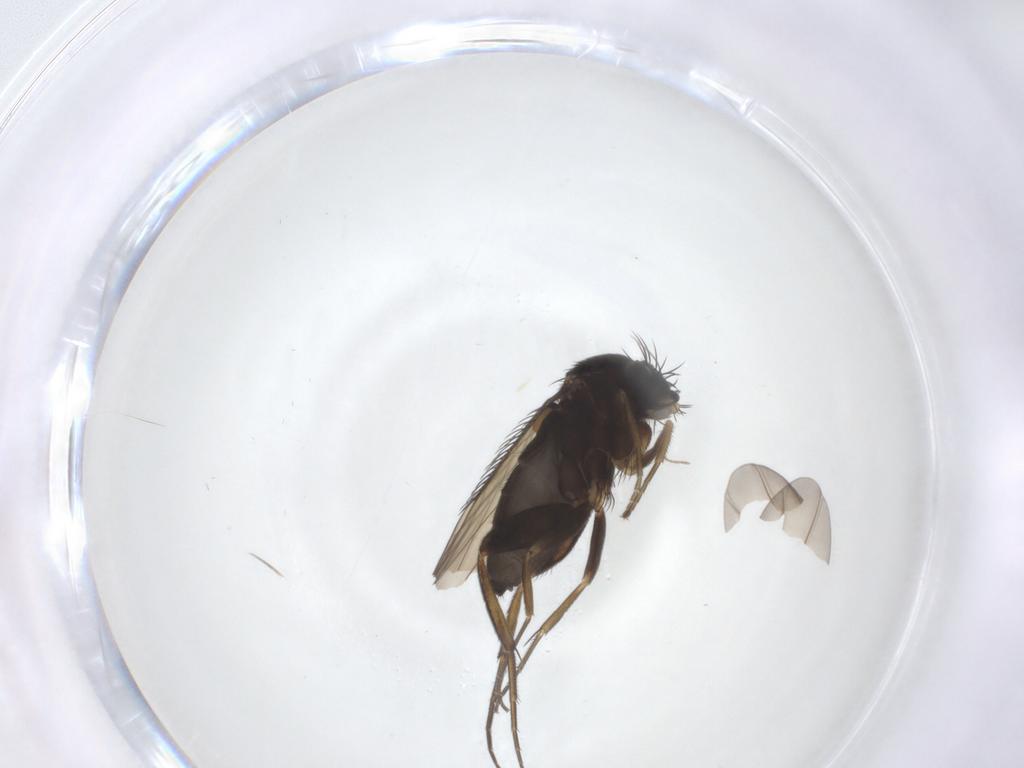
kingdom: Animalia
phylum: Arthropoda
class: Insecta
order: Diptera
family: Phoridae
